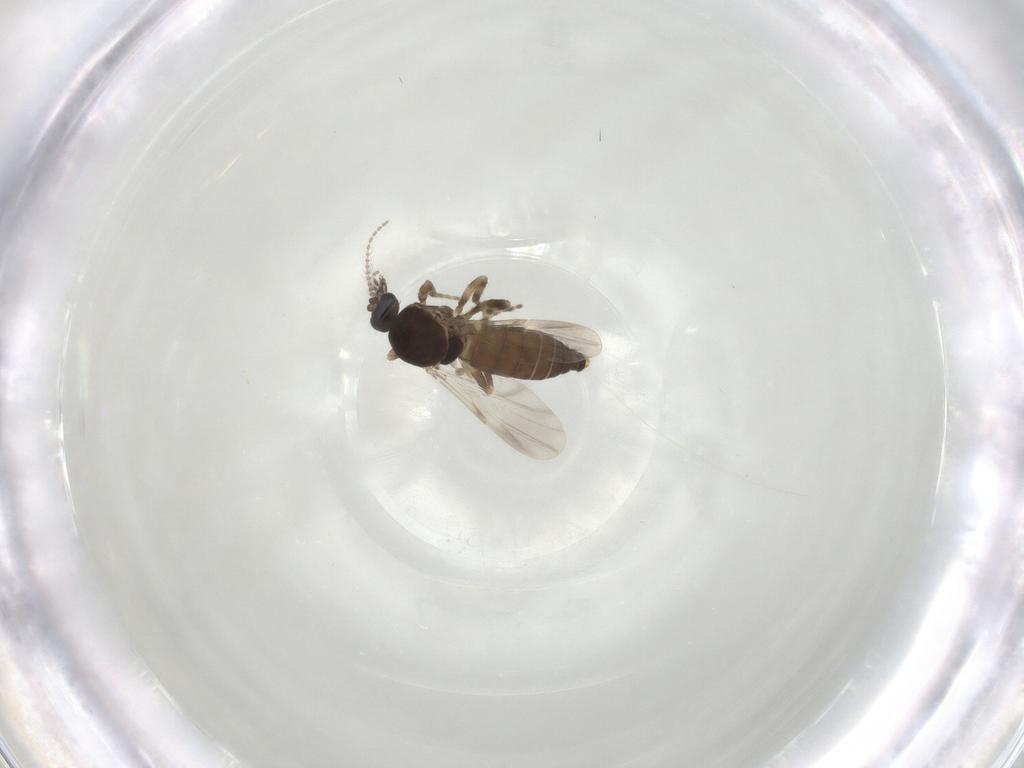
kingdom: Animalia
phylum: Arthropoda
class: Insecta
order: Diptera
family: Ceratopogonidae
